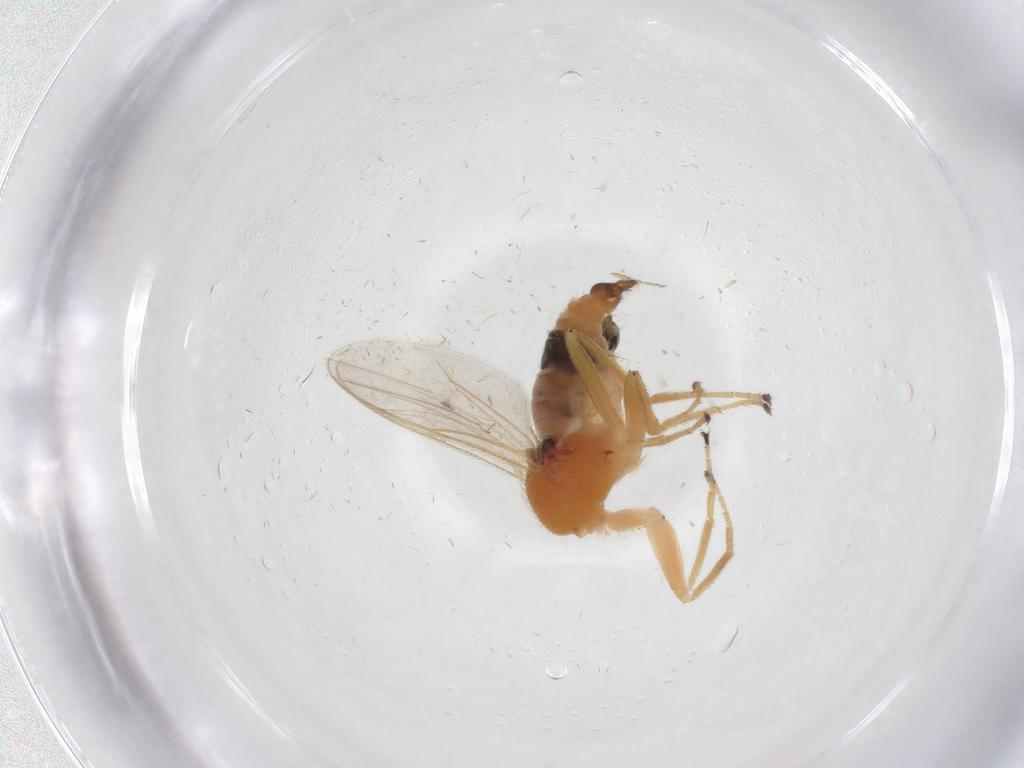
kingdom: Animalia
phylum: Arthropoda
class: Insecta
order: Diptera
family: Hybotidae
